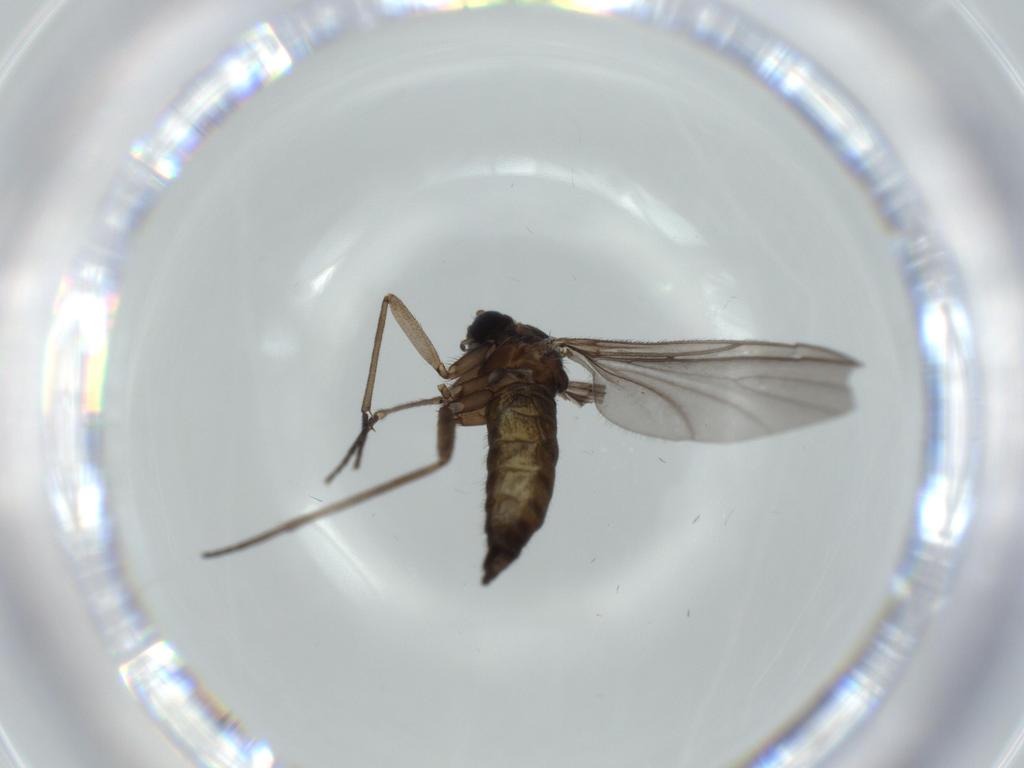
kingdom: Animalia
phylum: Arthropoda
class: Insecta
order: Diptera
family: Sciaridae
